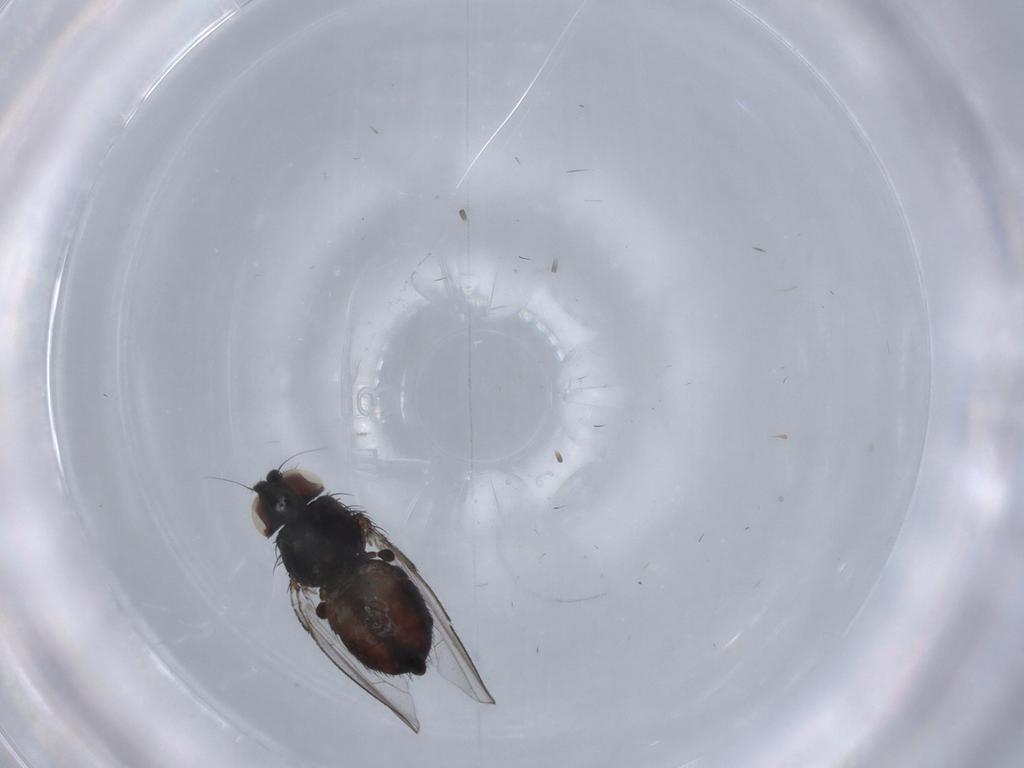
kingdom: Animalia
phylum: Arthropoda
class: Insecta
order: Diptera
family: Milichiidae
